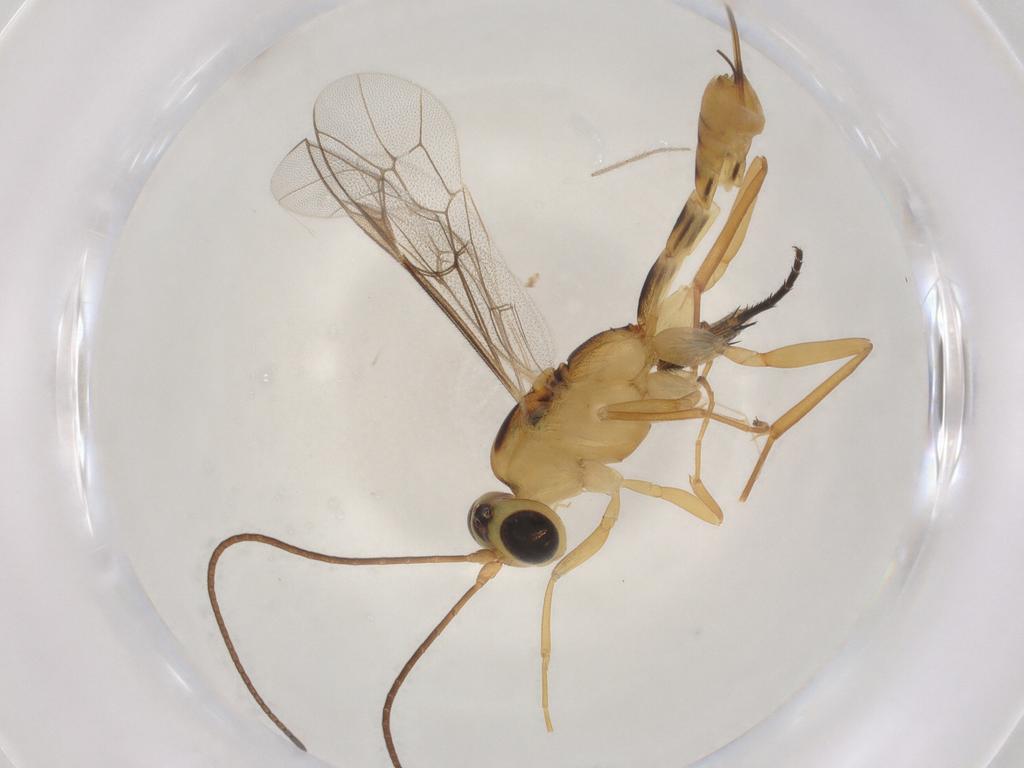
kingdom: Animalia
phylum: Arthropoda
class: Insecta
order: Hymenoptera
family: Ichneumonidae
